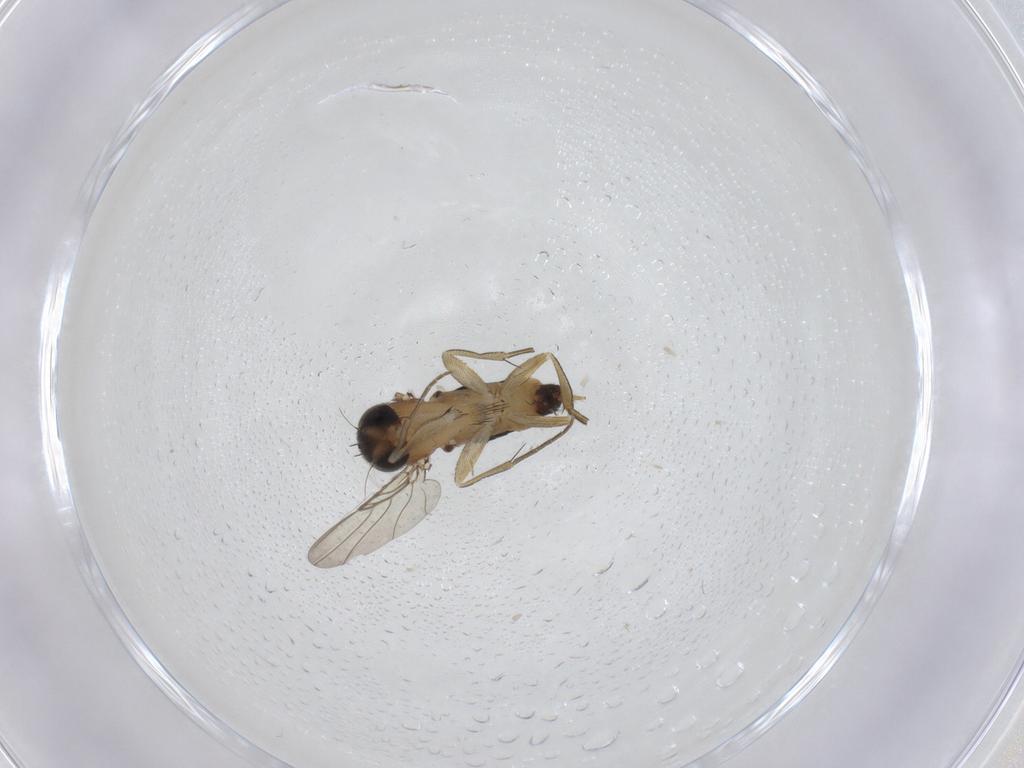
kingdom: Animalia
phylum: Arthropoda
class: Insecta
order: Diptera
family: Phoridae
